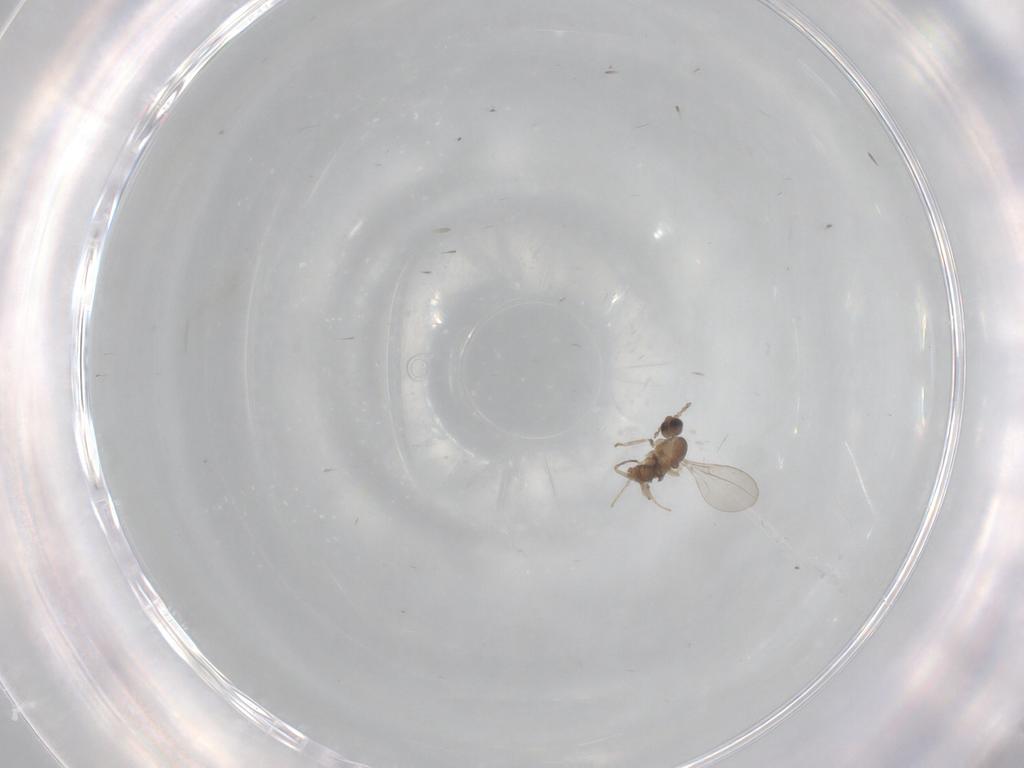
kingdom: Animalia
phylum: Arthropoda
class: Insecta
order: Diptera
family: Cecidomyiidae
